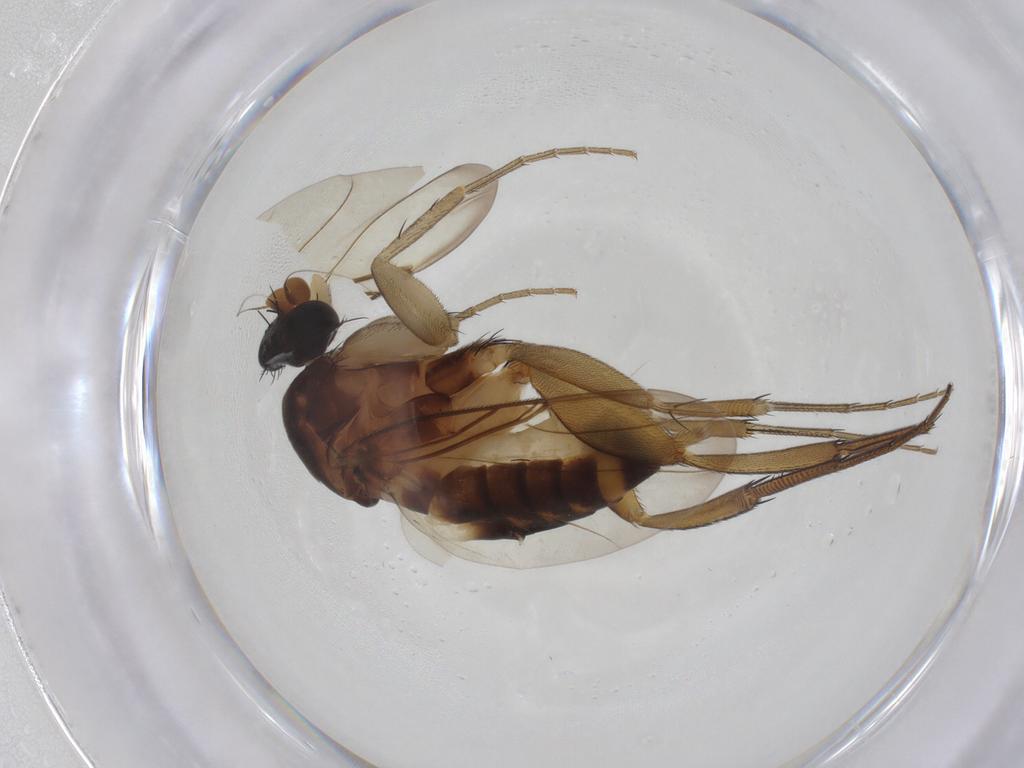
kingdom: Animalia
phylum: Arthropoda
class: Insecta
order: Diptera
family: Phoridae
